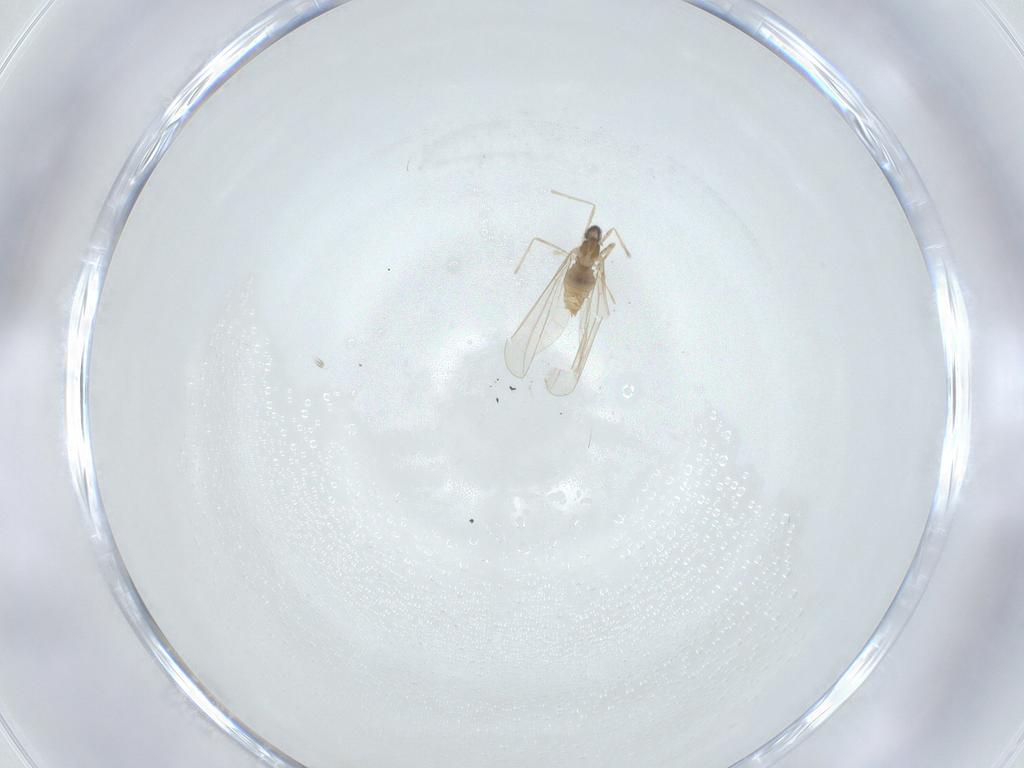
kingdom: Animalia
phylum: Arthropoda
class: Insecta
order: Diptera
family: Cecidomyiidae
